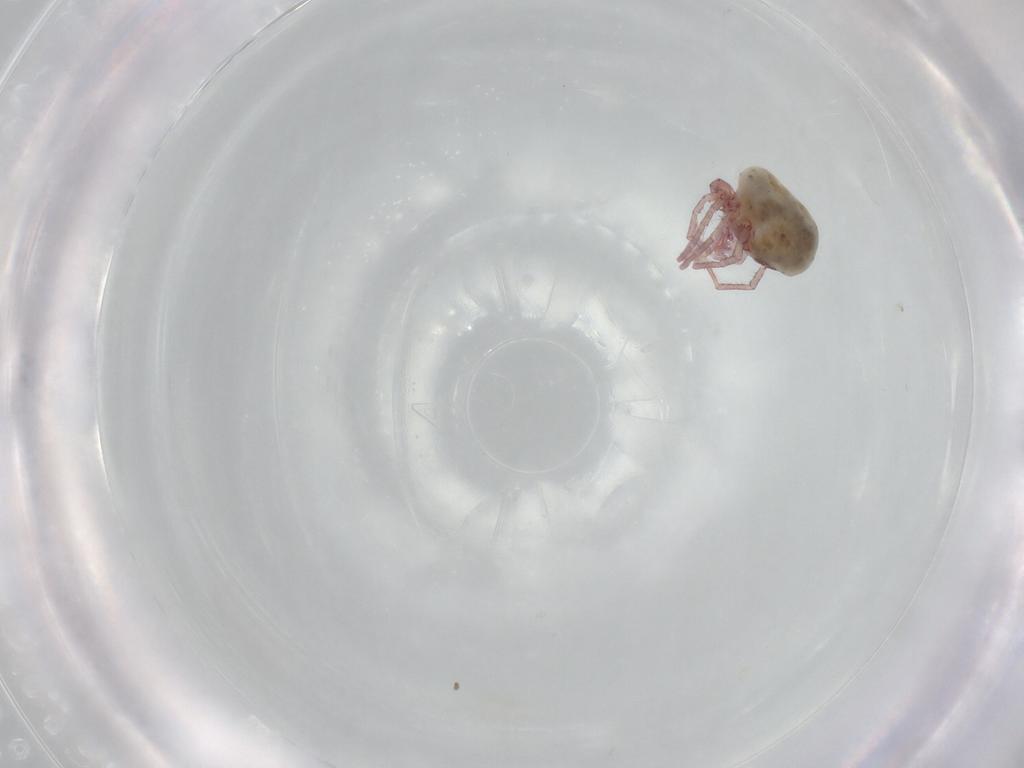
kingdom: Animalia
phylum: Arthropoda
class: Arachnida
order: Trombidiformes
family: Pionidae
